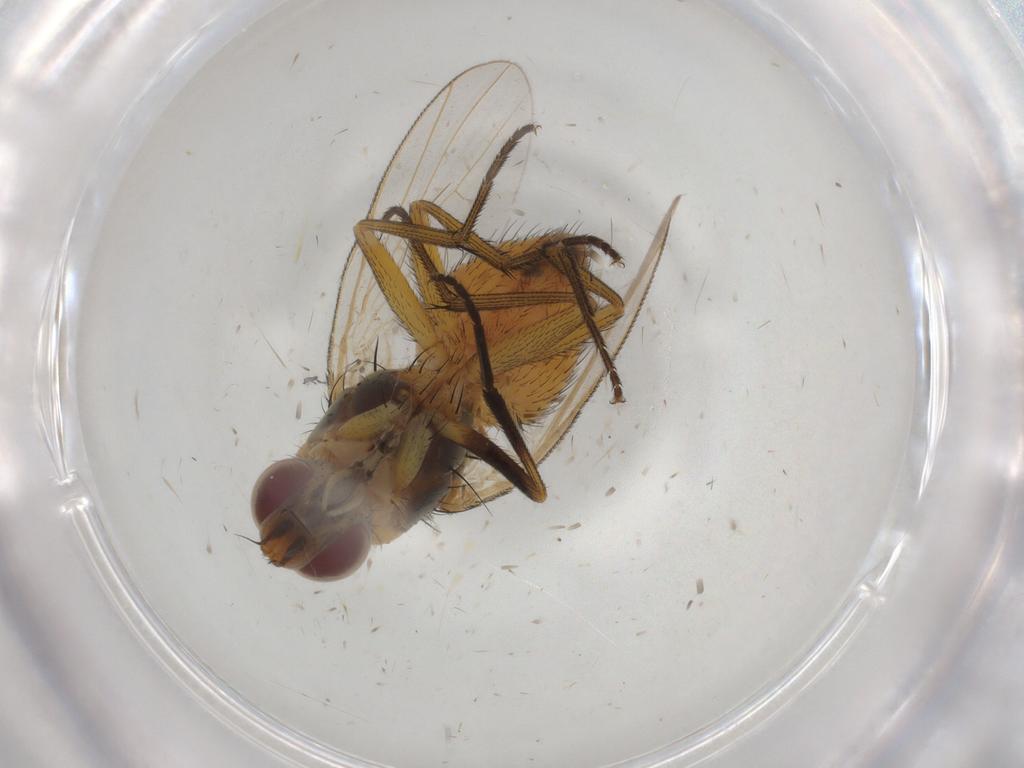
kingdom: Animalia
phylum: Arthropoda
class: Insecta
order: Diptera
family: Muscidae
